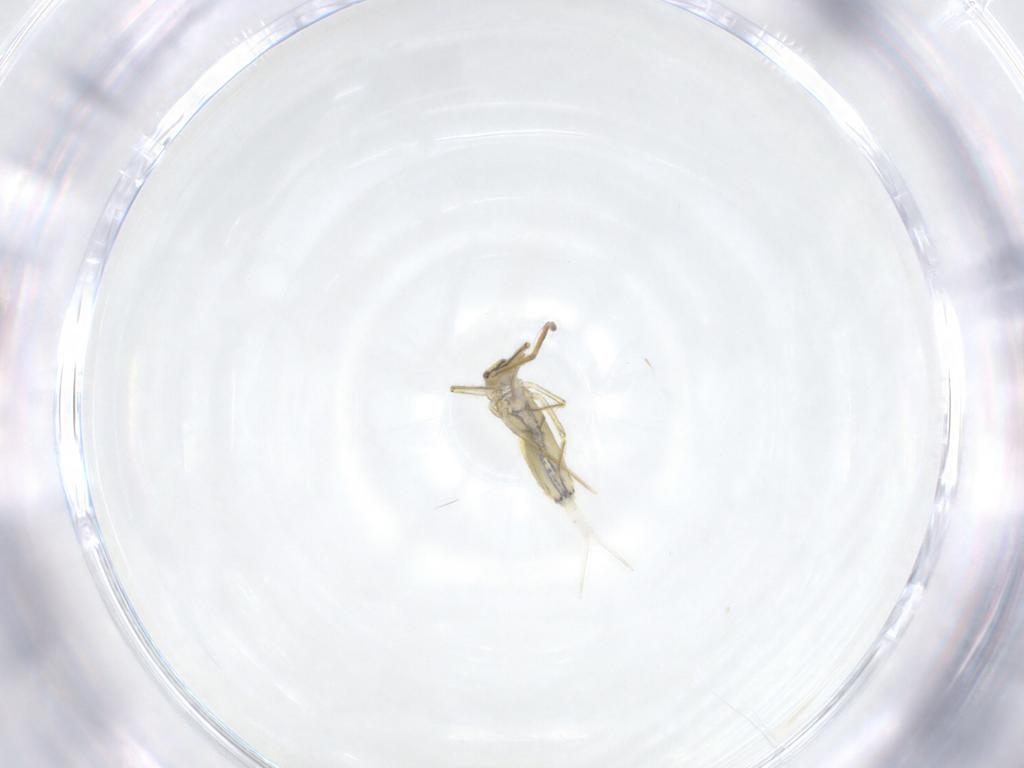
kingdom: Animalia
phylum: Arthropoda
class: Collembola
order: Entomobryomorpha
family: Entomobryidae
